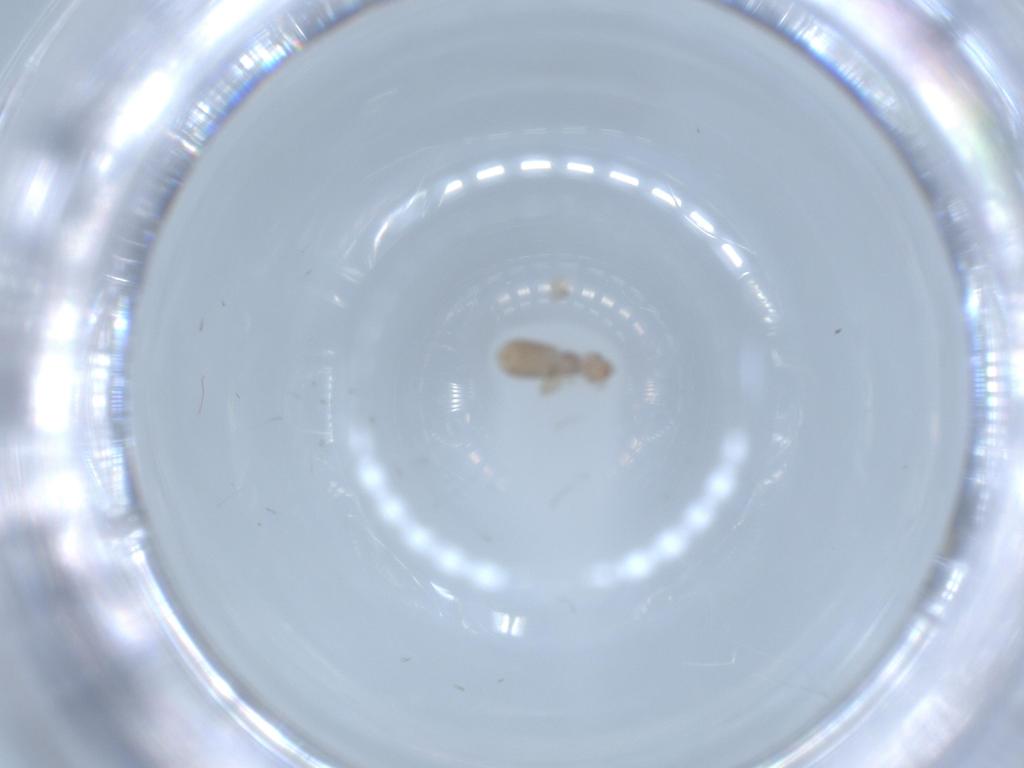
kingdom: Animalia
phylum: Arthropoda
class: Insecta
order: Psocodea
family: Liposcelididae
